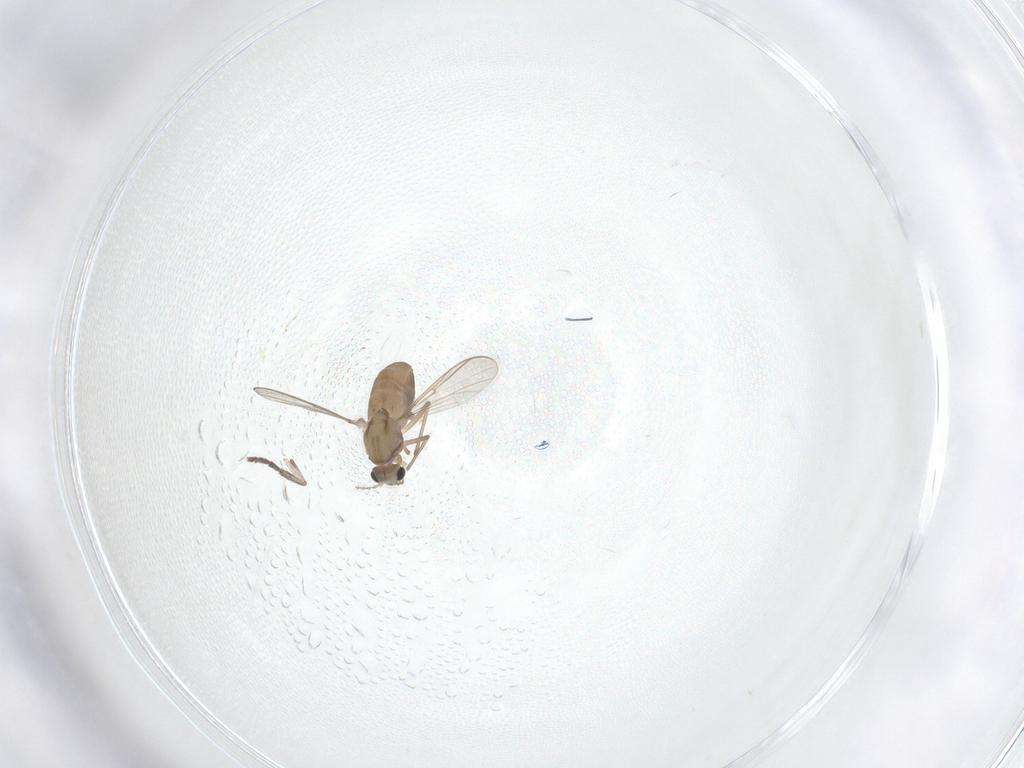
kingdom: Animalia
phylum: Arthropoda
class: Insecta
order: Diptera
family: Chironomidae
